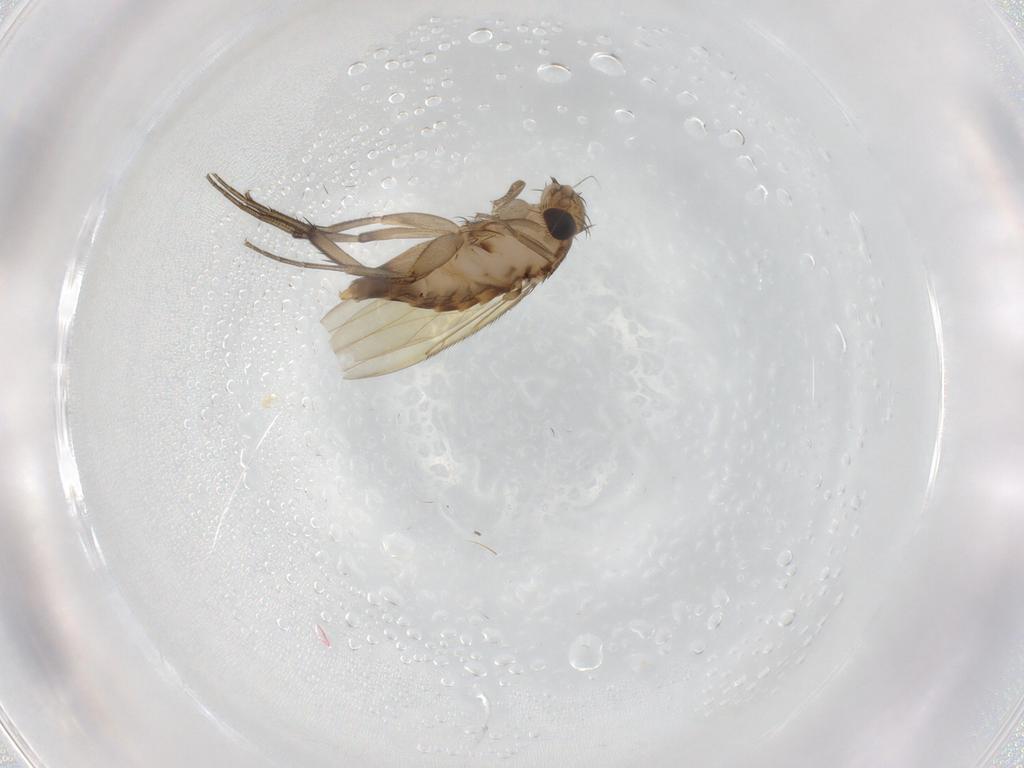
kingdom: Animalia
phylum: Arthropoda
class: Insecta
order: Diptera
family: Phoridae
